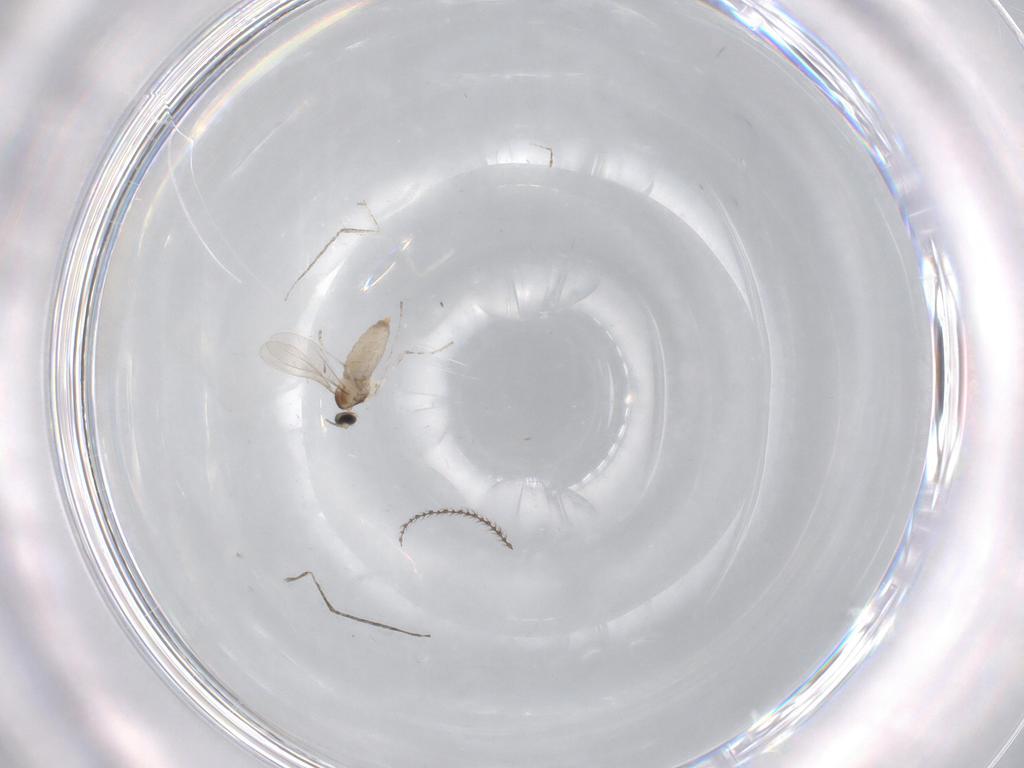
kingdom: Animalia
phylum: Arthropoda
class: Insecta
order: Diptera
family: Cecidomyiidae
